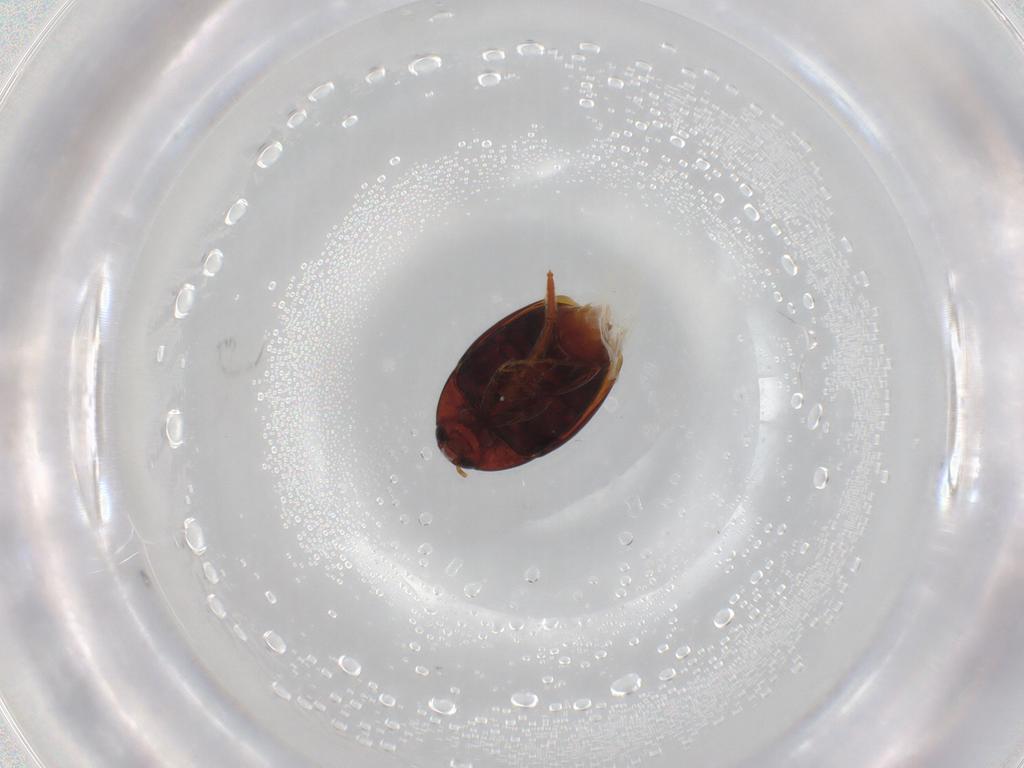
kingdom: Animalia
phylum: Arthropoda
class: Insecta
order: Coleoptera
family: Staphylinidae
